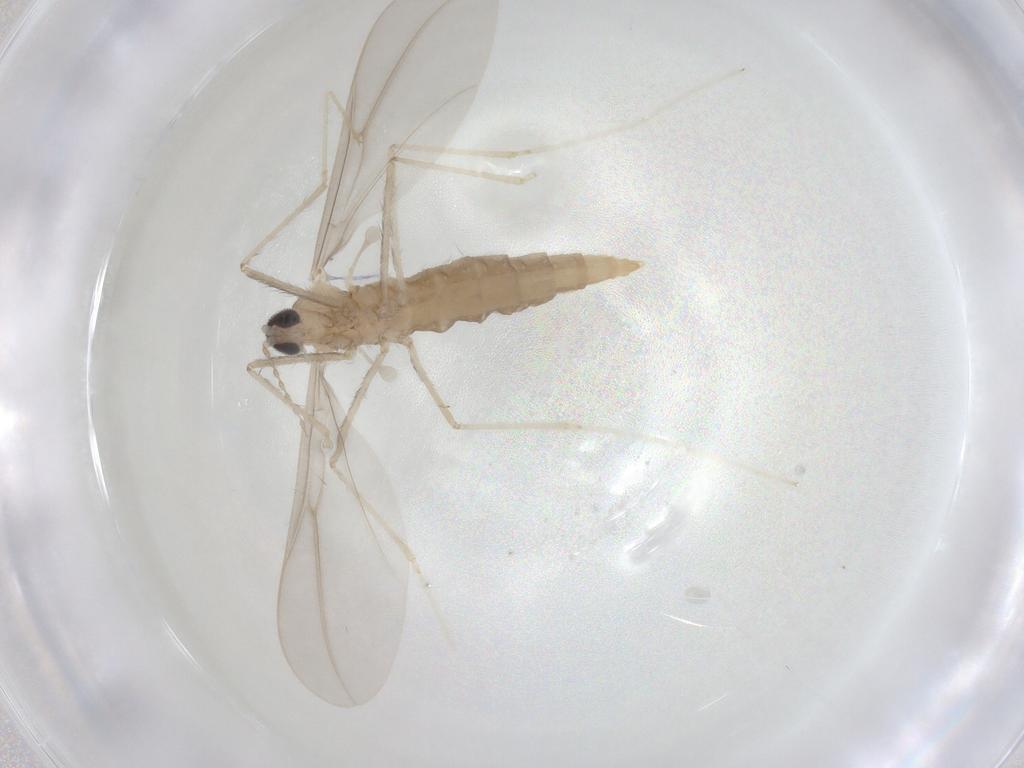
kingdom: Animalia
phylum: Arthropoda
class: Insecta
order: Diptera
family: Cecidomyiidae
